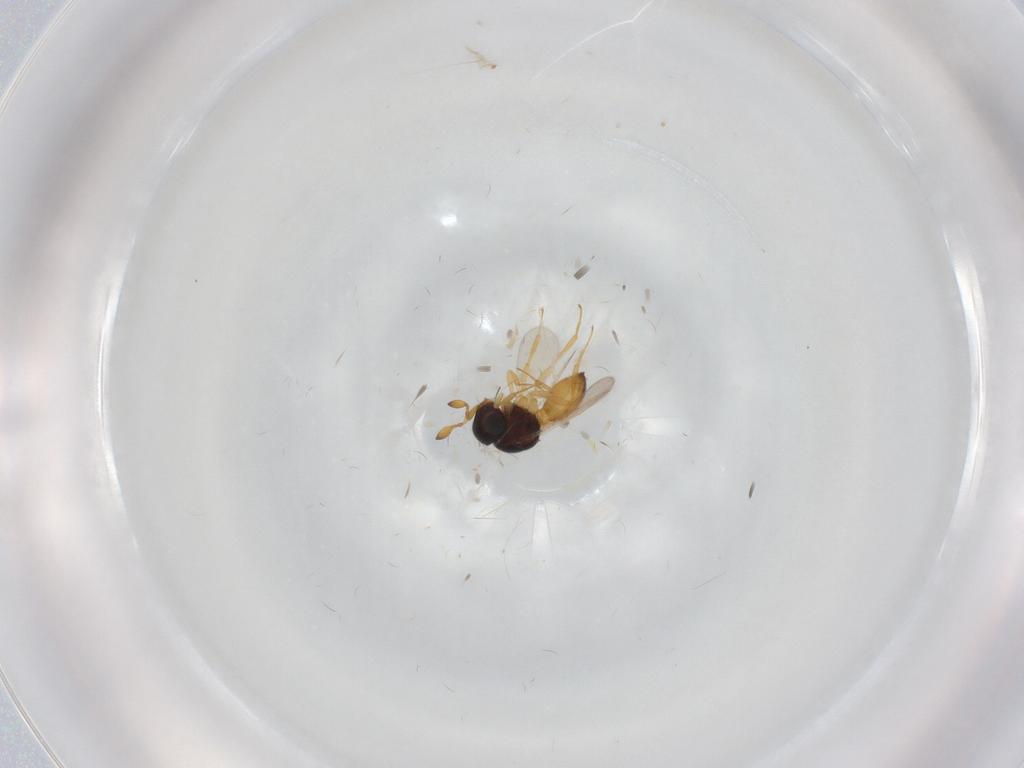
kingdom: Animalia
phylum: Arthropoda
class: Insecta
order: Hymenoptera
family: Scelionidae
